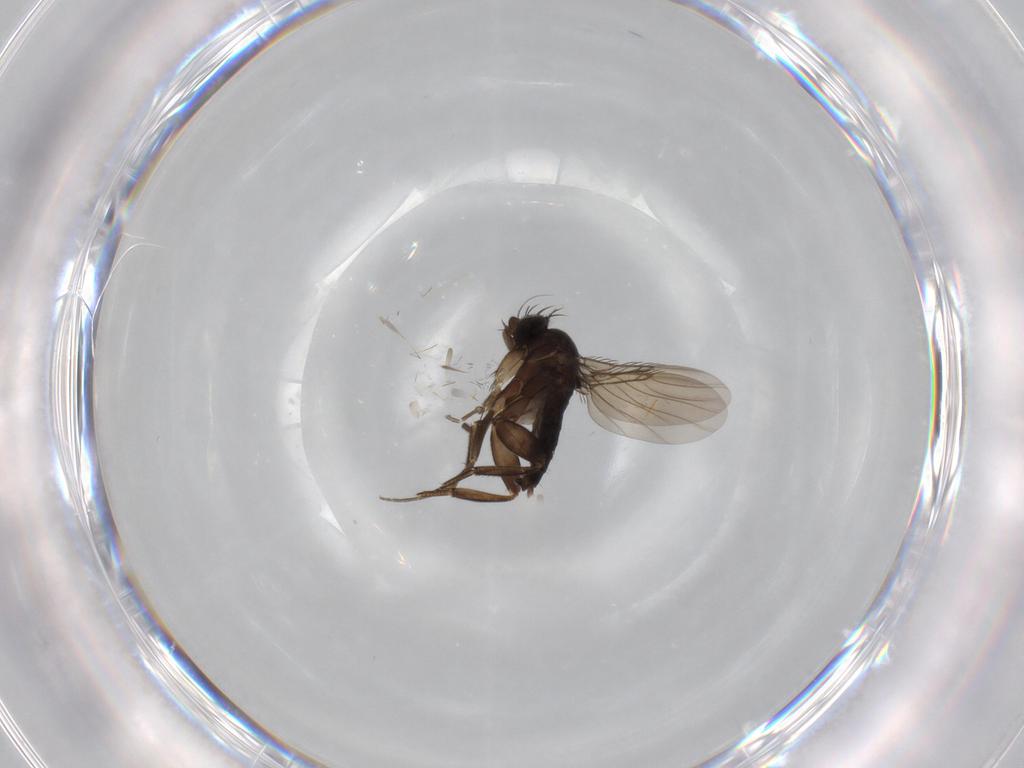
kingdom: Animalia
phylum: Arthropoda
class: Insecta
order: Diptera
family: Phoridae
